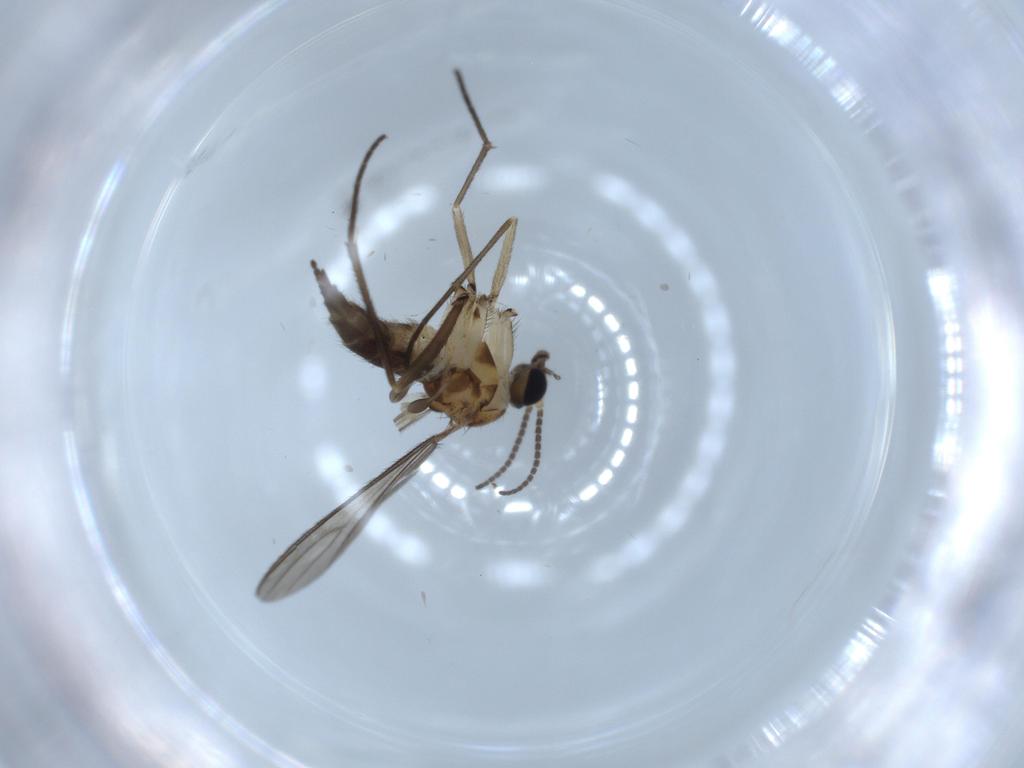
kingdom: Animalia
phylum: Arthropoda
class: Insecta
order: Diptera
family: Sciaridae
